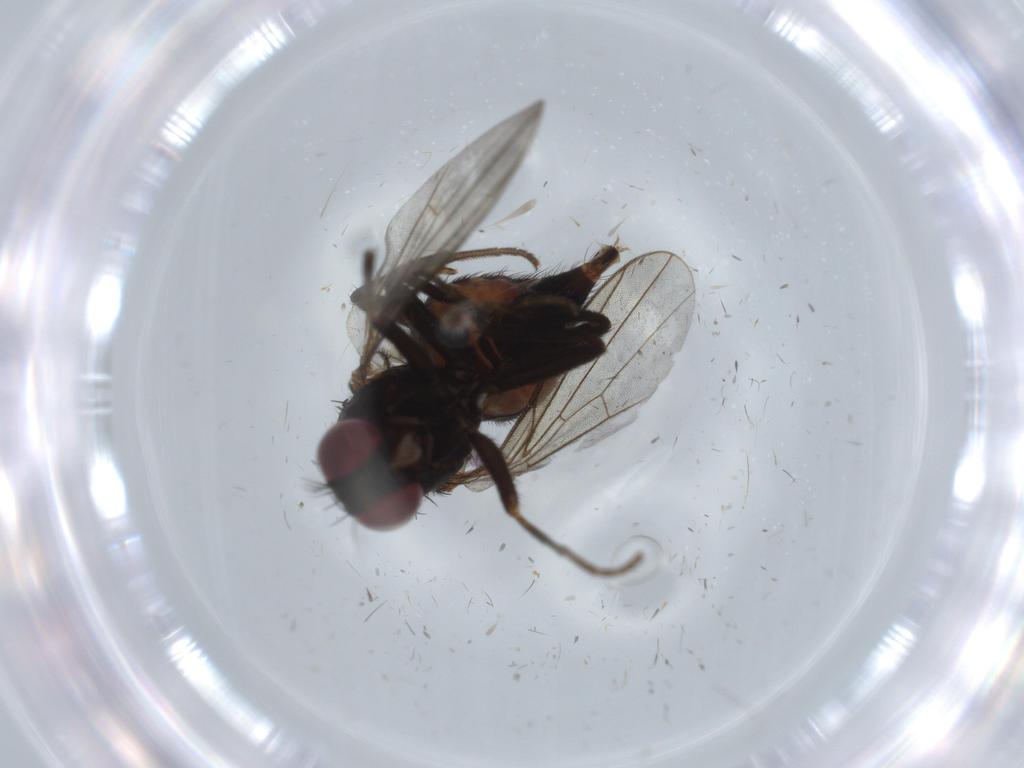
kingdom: Animalia
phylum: Arthropoda
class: Insecta
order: Diptera
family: Agromyzidae
